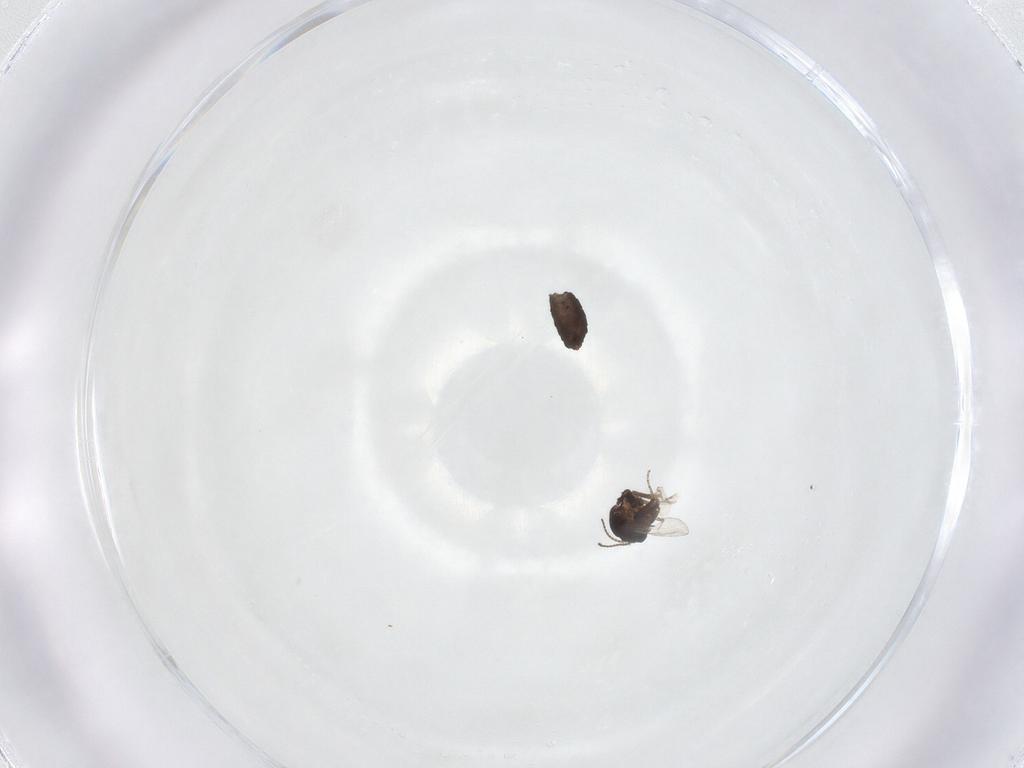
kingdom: Animalia
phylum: Arthropoda
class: Insecta
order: Diptera
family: Ceratopogonidae
